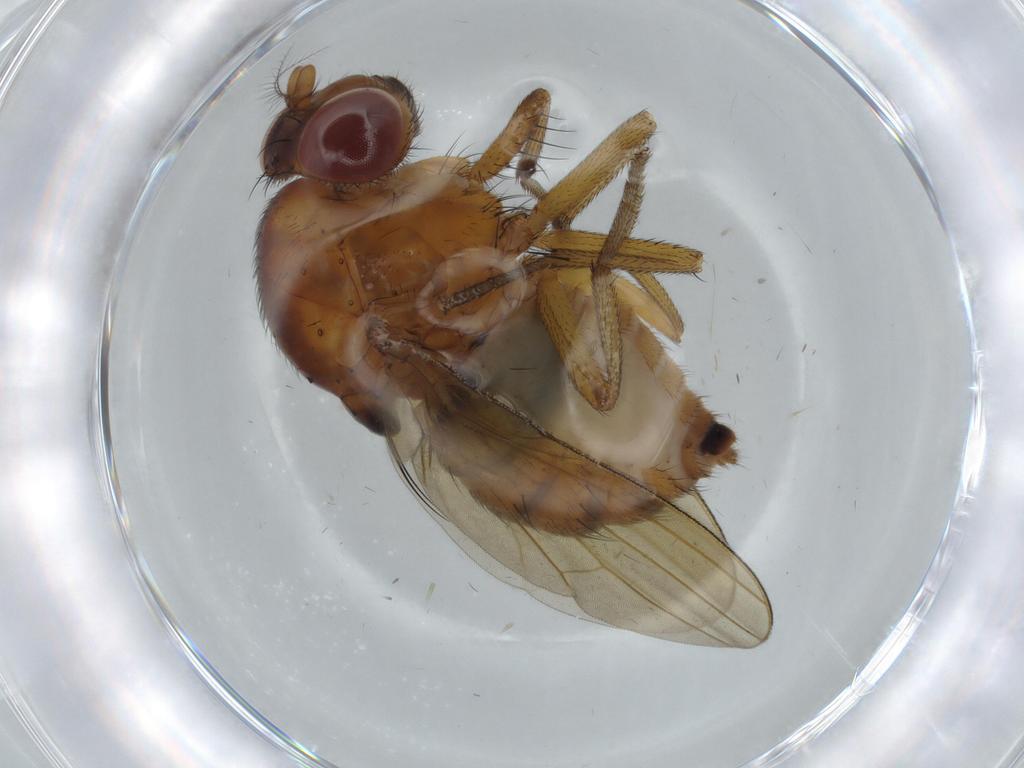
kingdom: Animalia
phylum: Arthropoda
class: Insecta
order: Diptera
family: Lauxaniidae
